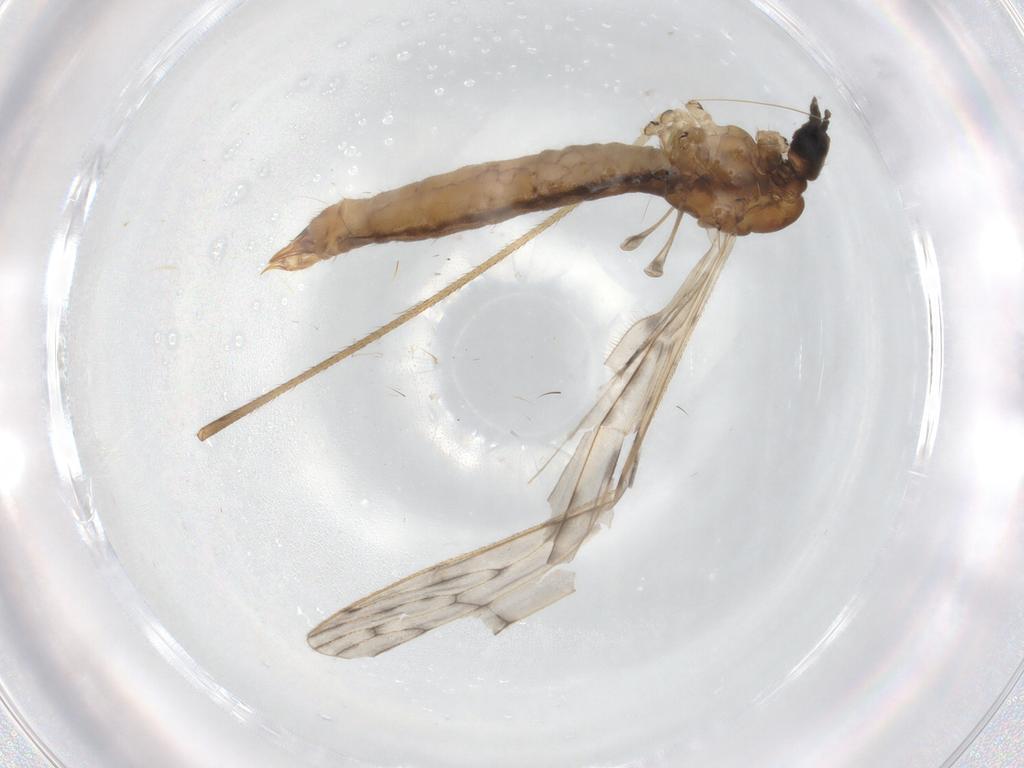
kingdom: Animalia
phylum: Arthropoda
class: Insecta
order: Diptera
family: Limoniidae
